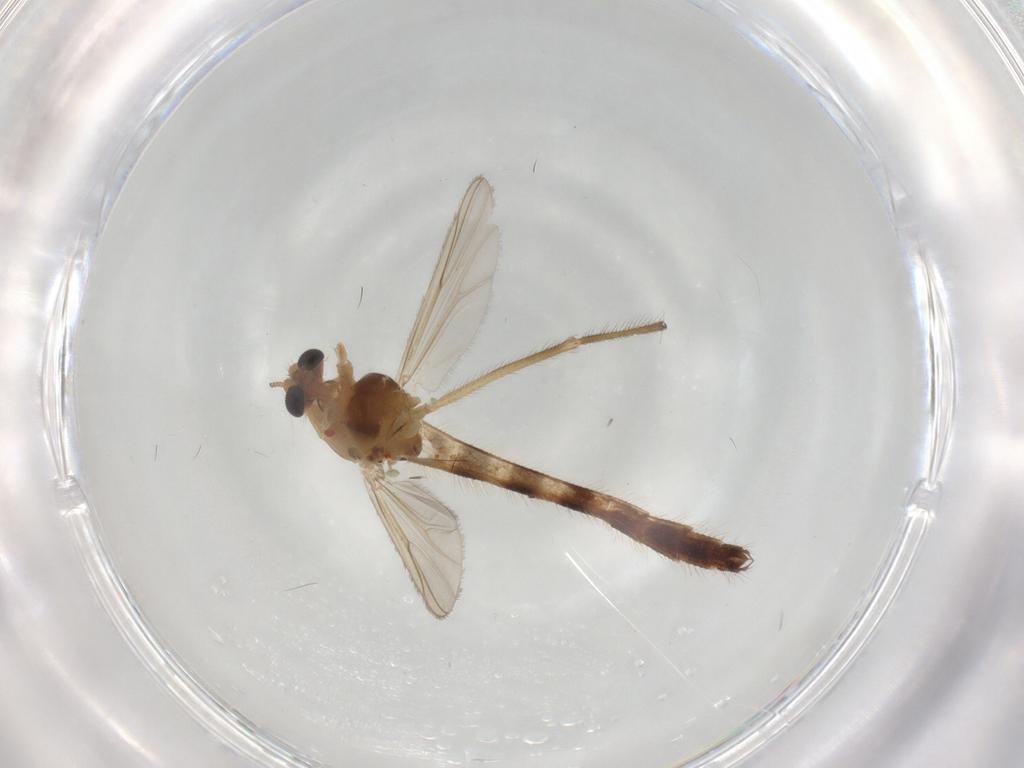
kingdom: Animalia
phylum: Arthropoda
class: Insecta
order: Diptera
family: Chironomidae
